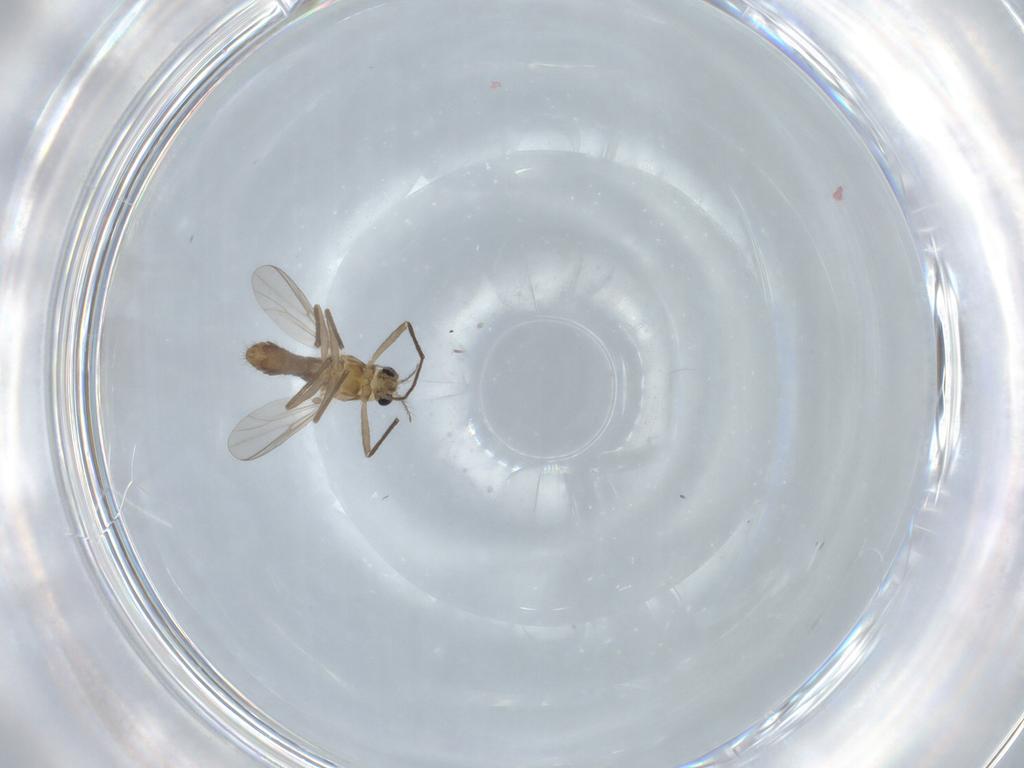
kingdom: Animalia
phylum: Arthropoda
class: Insecta
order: Diptera
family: Chironomidae
